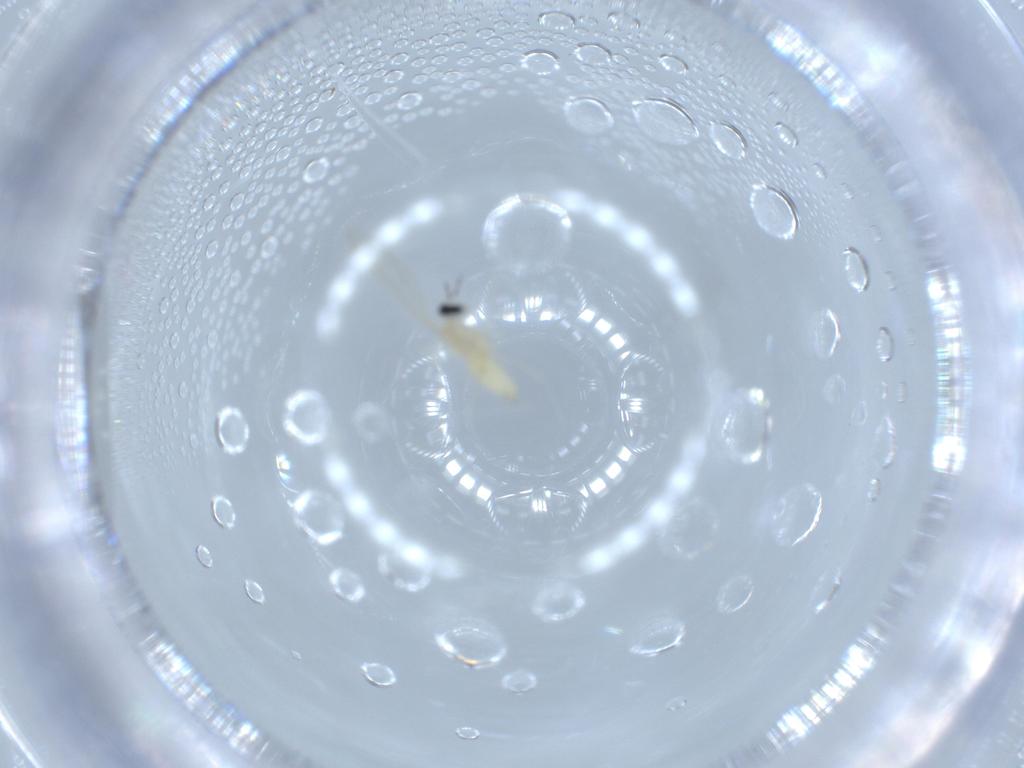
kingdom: Animalia
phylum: Arthropoda
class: Insecta
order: Diptera
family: Cecidomyiidae
